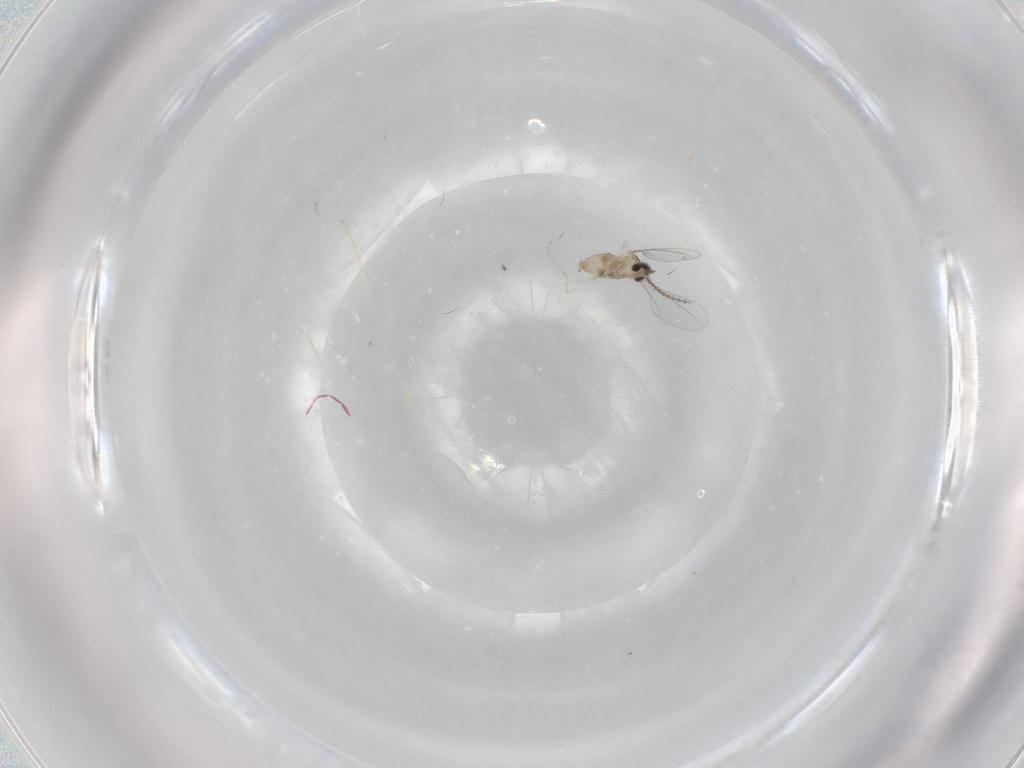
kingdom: Animalia
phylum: Arthropoda
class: Insecta
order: Diptera
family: Cecidomyiidae
